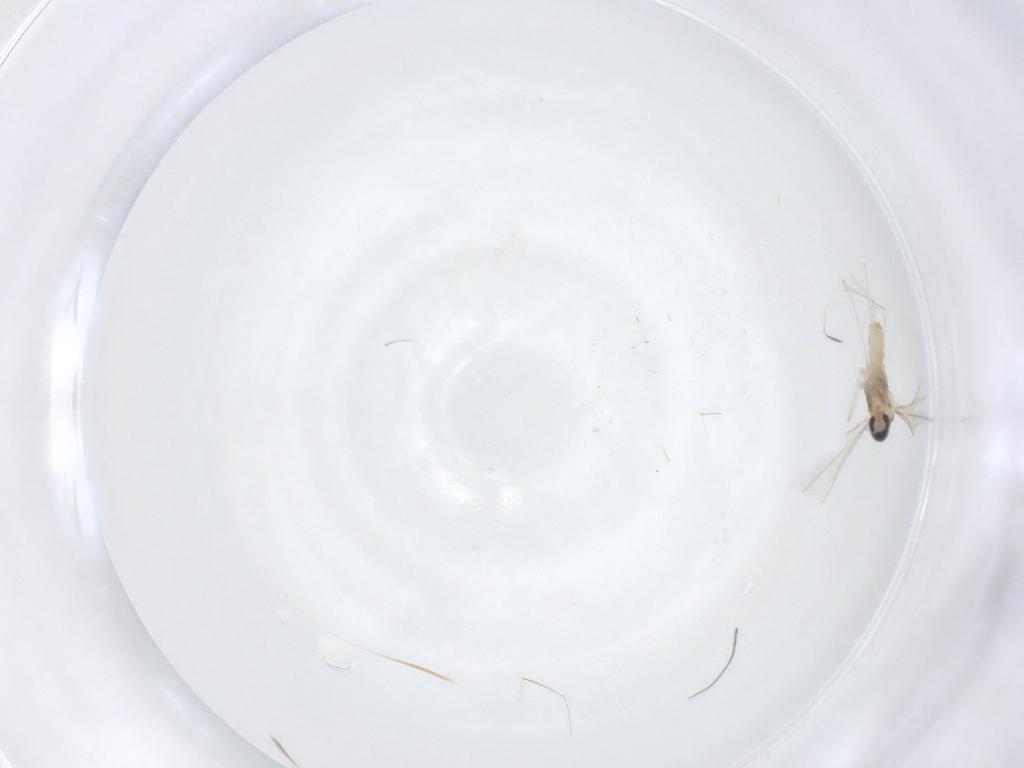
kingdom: Animalia
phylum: Arthropoda
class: Insecta
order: Diptera
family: Cecidomyiidae
